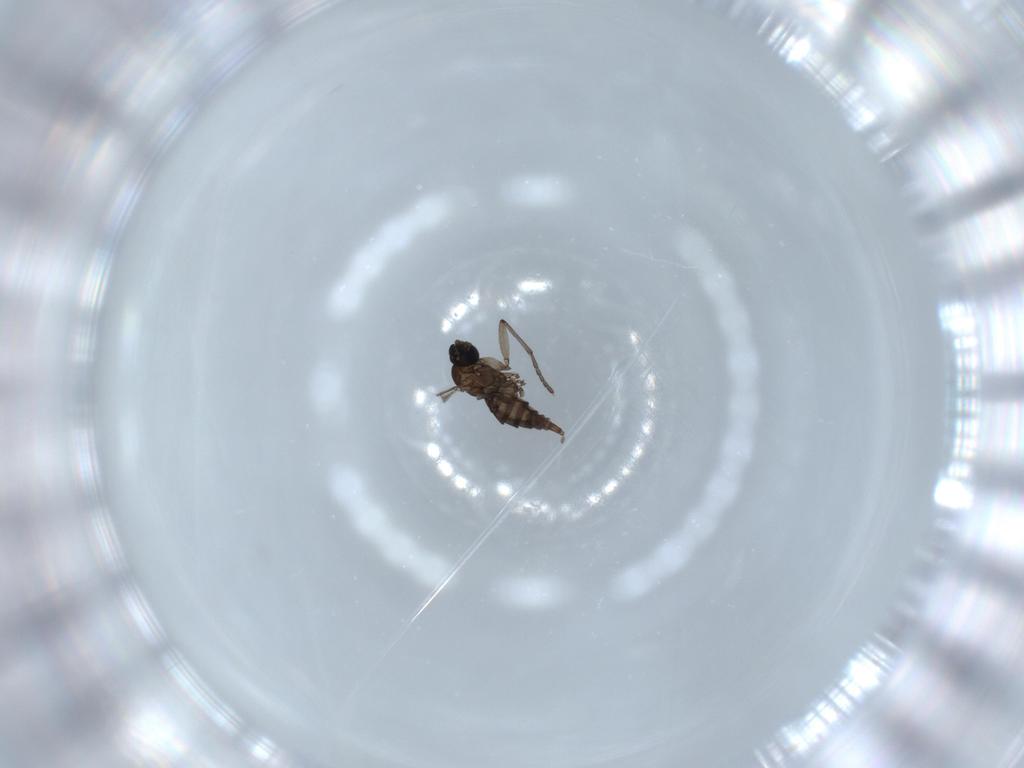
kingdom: Animalia
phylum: Arthropoda
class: Insecta
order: Diptera
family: Sciaridae
